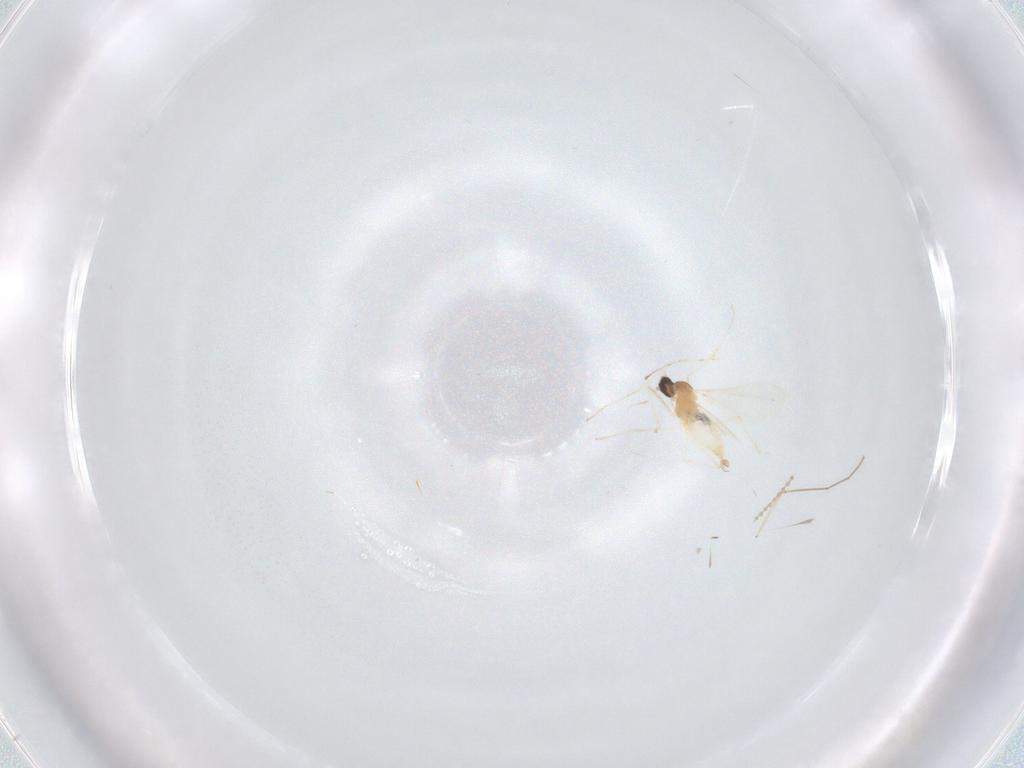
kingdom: Animalia
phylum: Arthropoda
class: Insecta
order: Diptera
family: Cecidomyiidae
